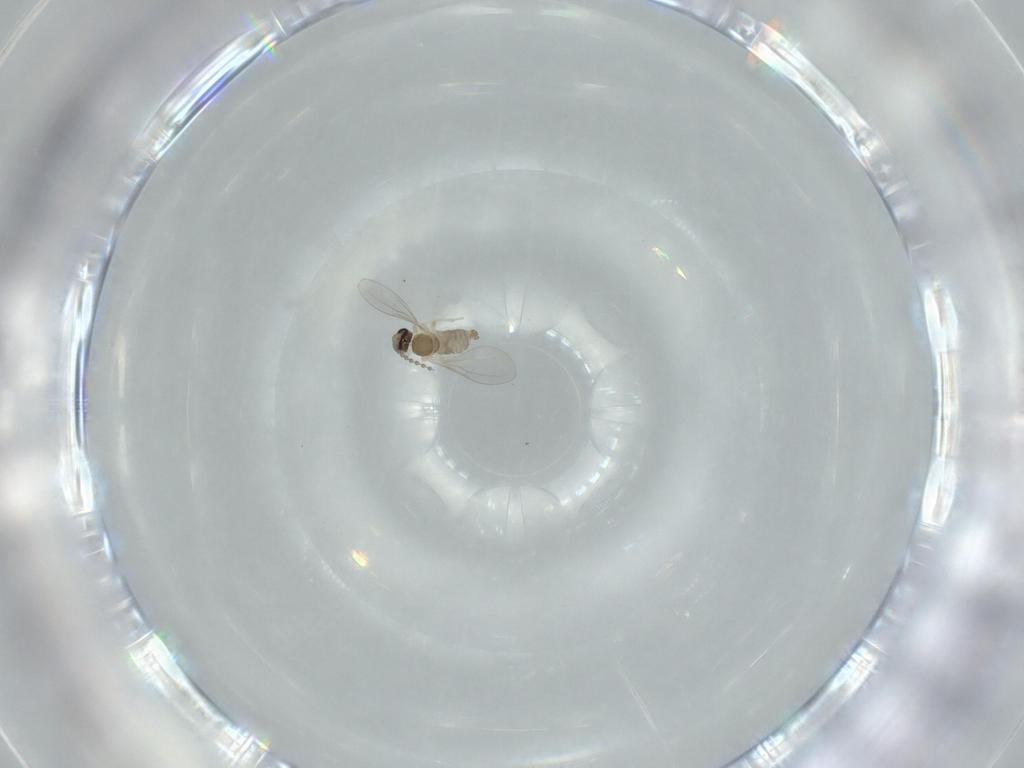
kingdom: Animalia
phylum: Arthropoda
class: Insecta
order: Diptera
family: Cecidomyiidae
